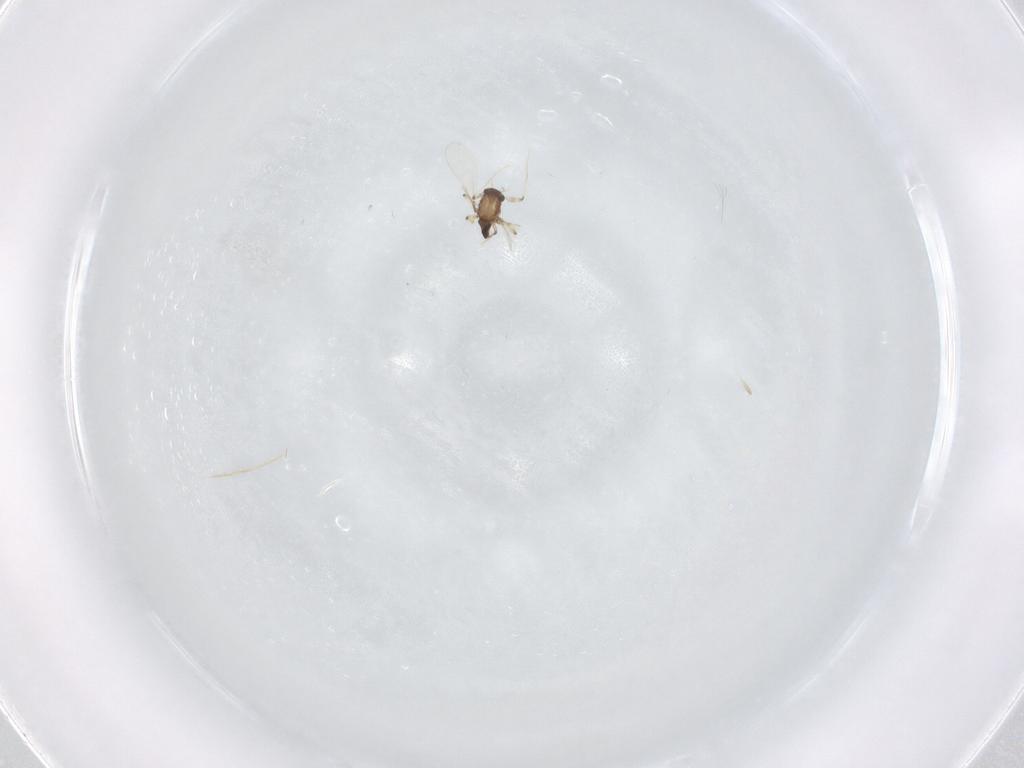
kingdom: Animalia
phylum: Arthropoda
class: Insecta
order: Diptera
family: Chironomidae
